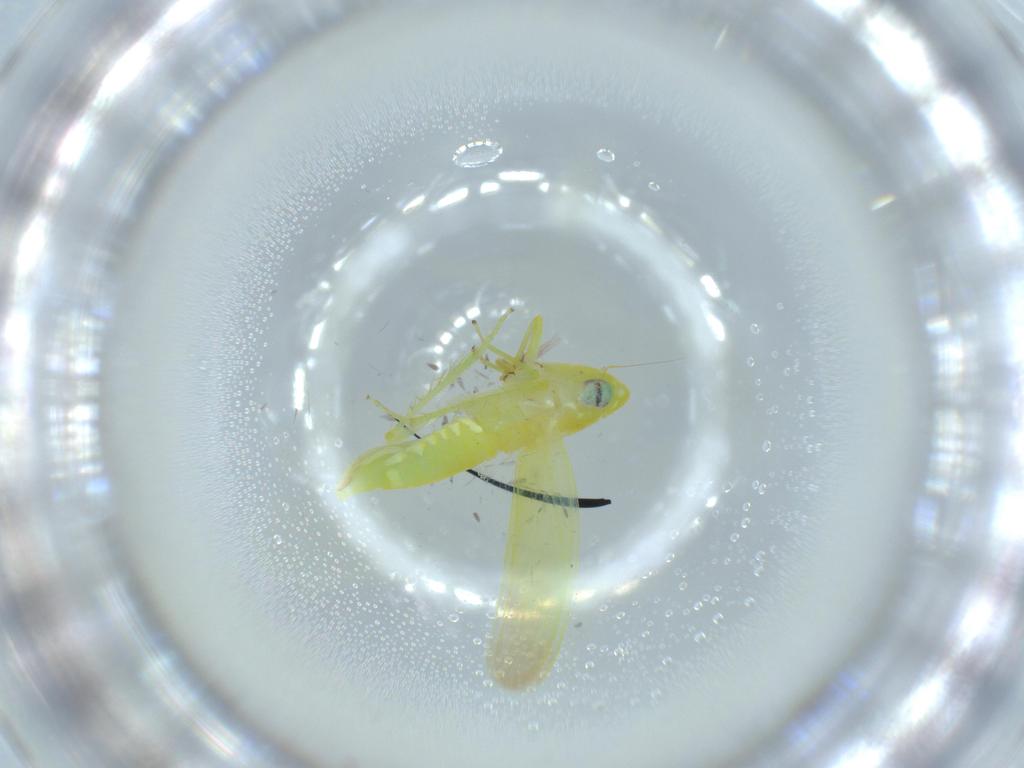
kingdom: Animalia
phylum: Arthropoda
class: Insecta
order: Hemiptera
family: Cicadellidae
